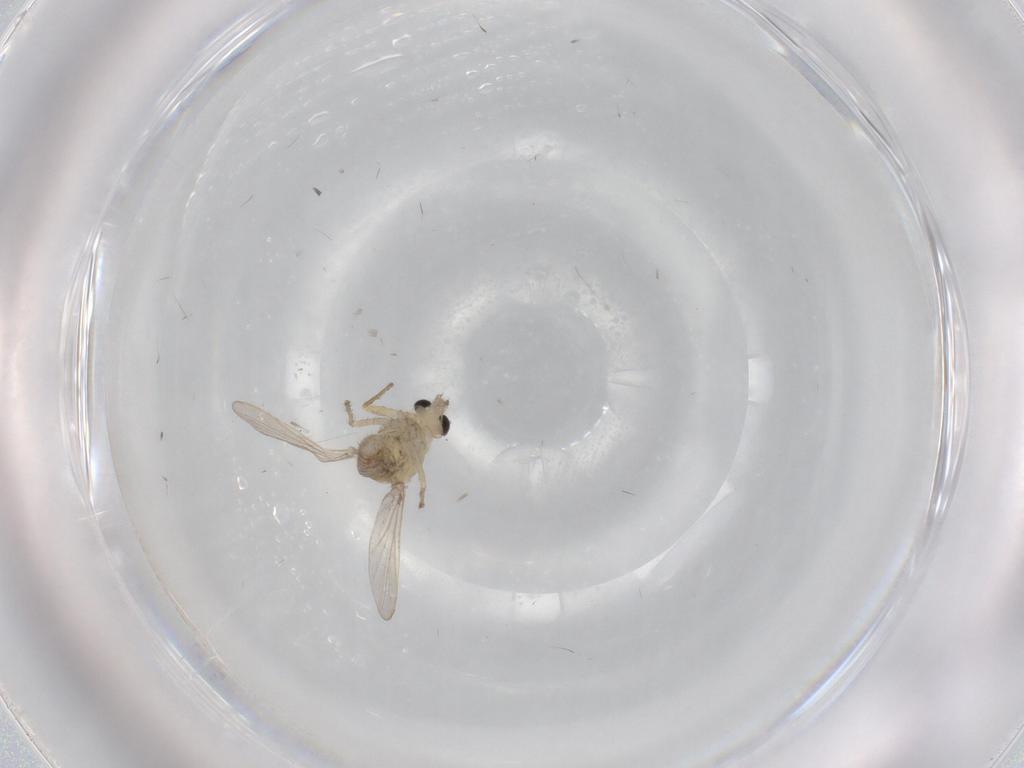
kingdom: Animalia
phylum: Arthropoda
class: Insecta
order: Diptera
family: Chironomidae
